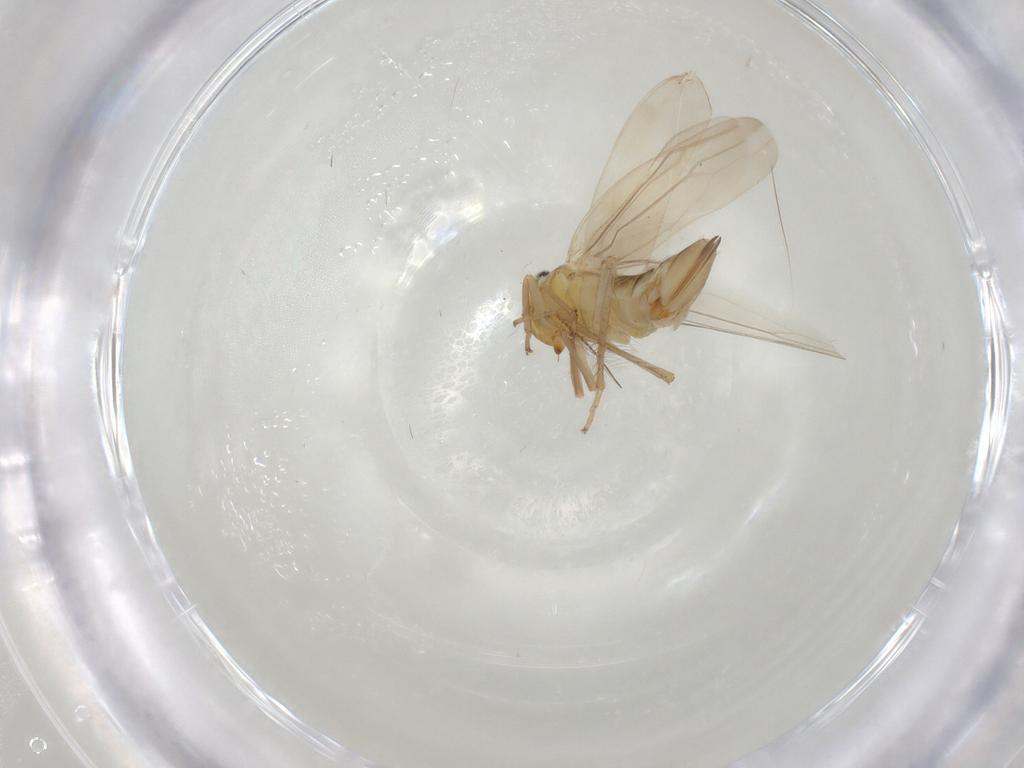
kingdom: Animalia
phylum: Arthropoda
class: Insecta
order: Hemiptera
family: Cicadellidae
